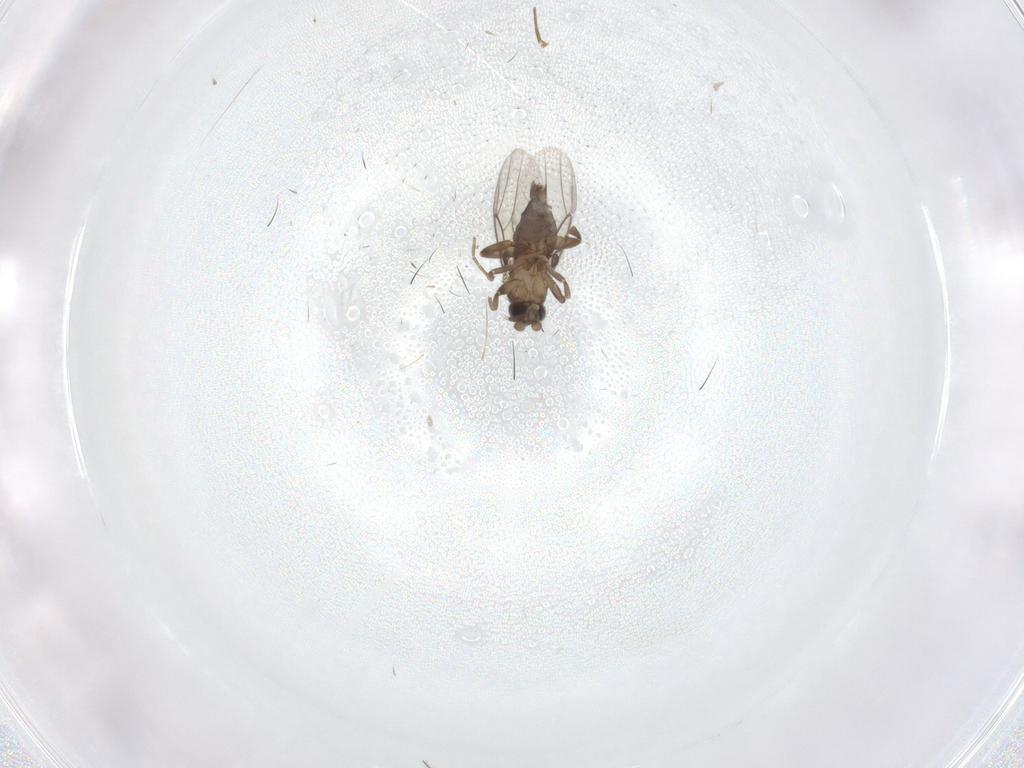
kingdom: Animalia
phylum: Arthropoda
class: Insecta
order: Diptera
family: Phoridae
